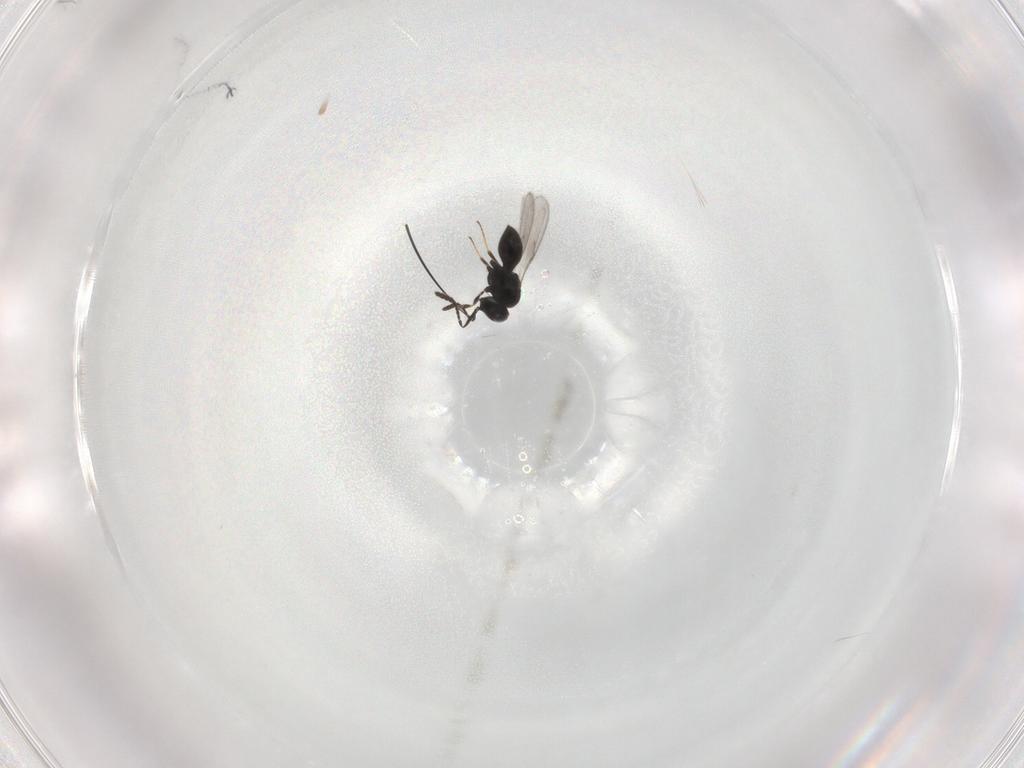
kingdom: Animalia
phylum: Arthropoda
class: Insecta
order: Hymenoptera
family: Scelionidae
